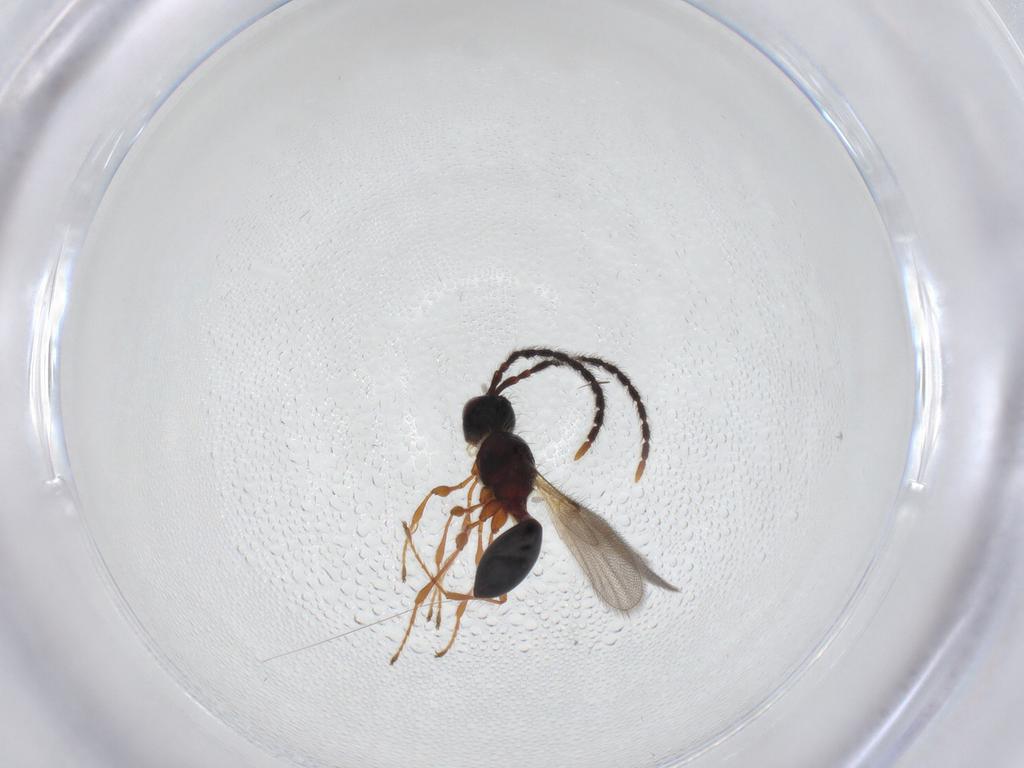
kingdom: Animalia
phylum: Arthropoda
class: Insecta
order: Hymenoptera
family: Diapriidae
